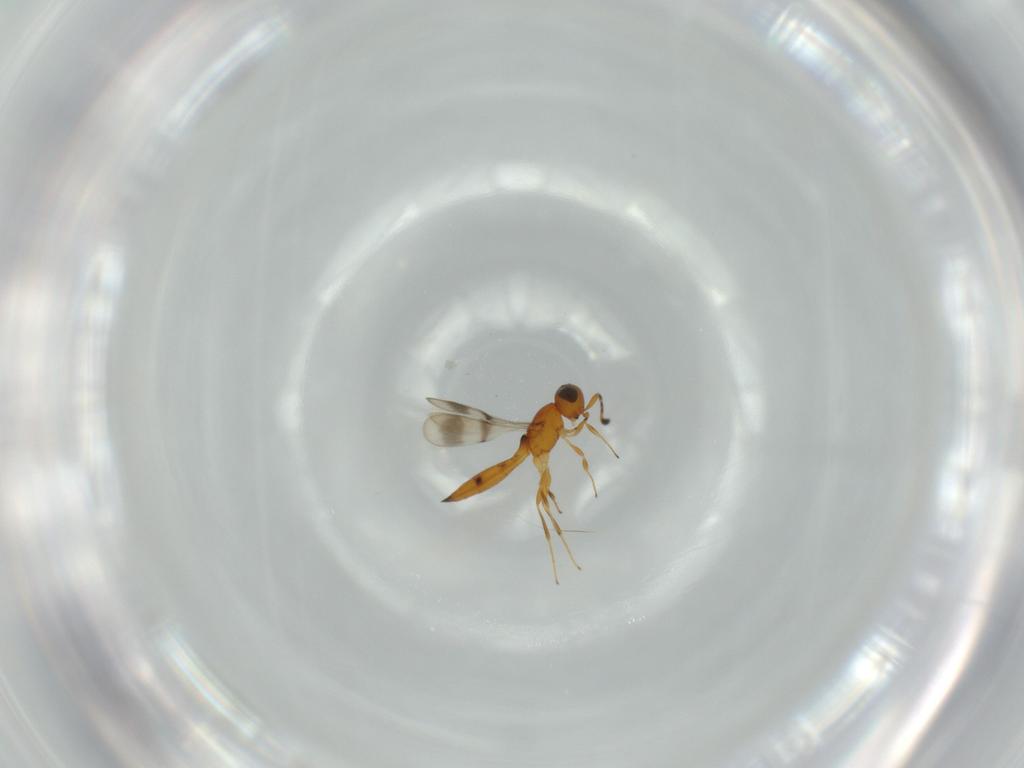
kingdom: Animalia
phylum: Arthropoda
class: Insecta
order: Hymenoptera
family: Scelionidae
